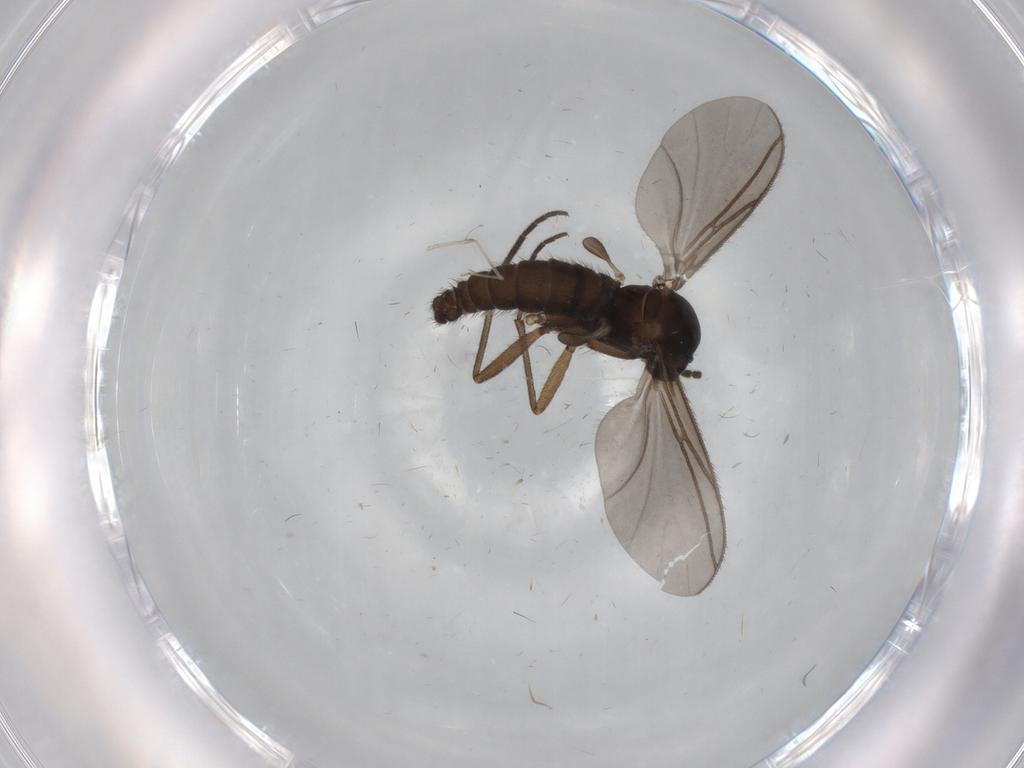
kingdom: Animalia
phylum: Arthropoda
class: Insecta
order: Diptera
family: Sciaridae
